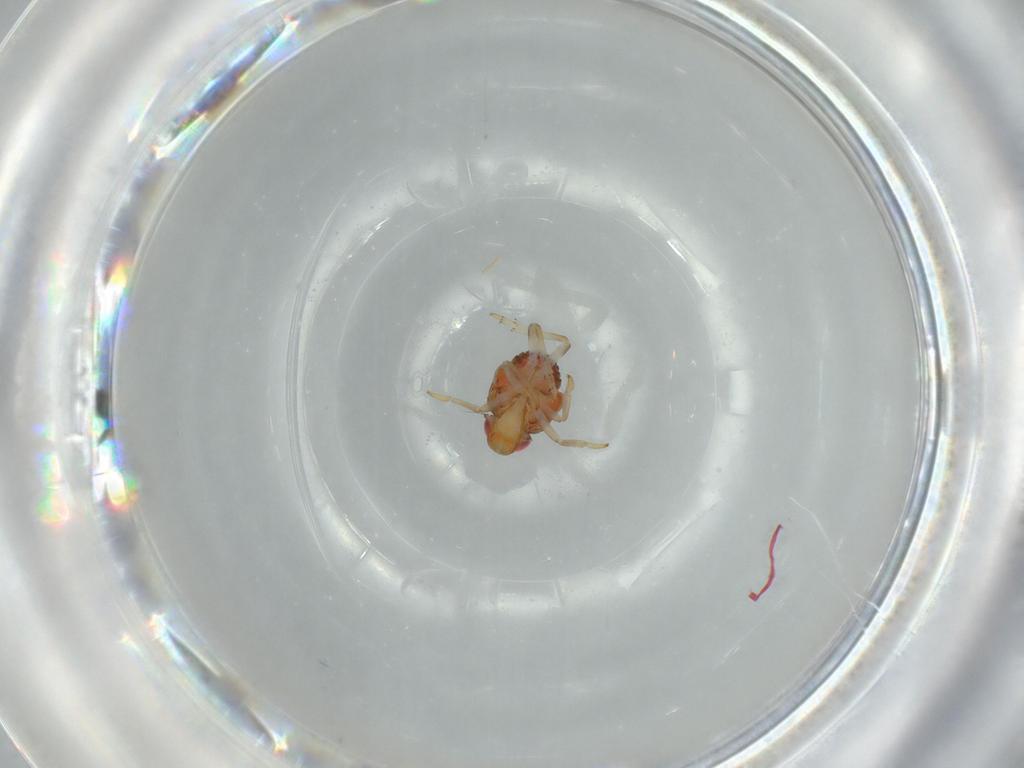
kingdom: Animalia
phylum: Arthropoda
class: Insecta
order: Hemiptera
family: Issidae
